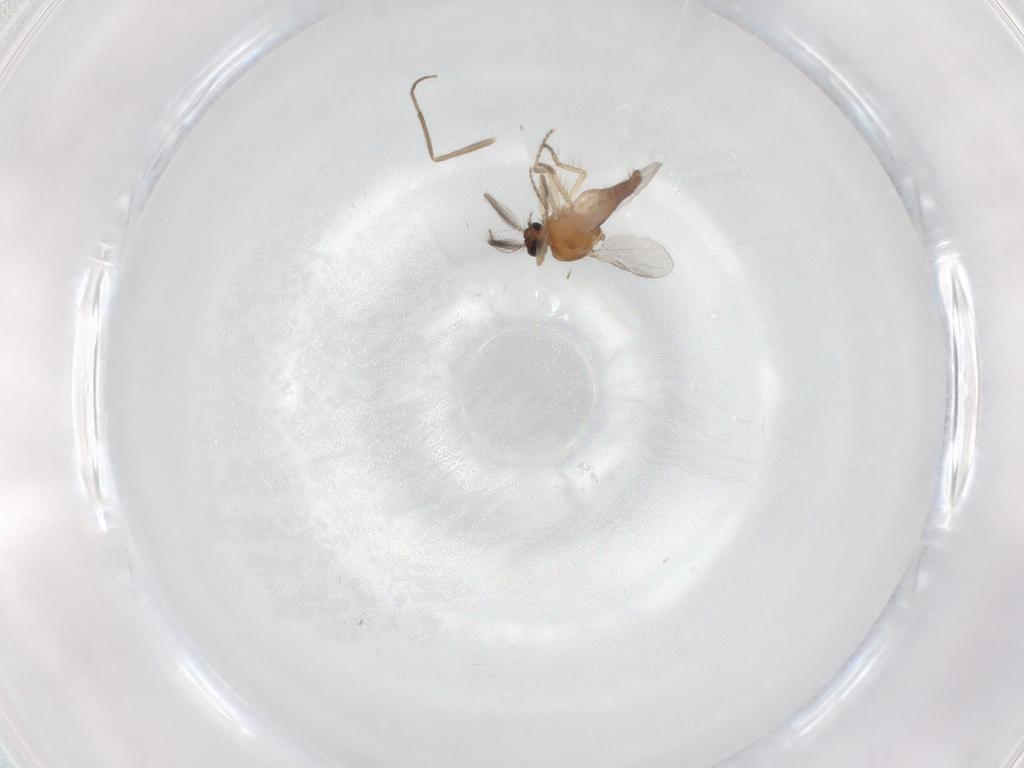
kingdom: Animalia
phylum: Arthropoda
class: Insecta
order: Diptera
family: Ceratopogonidae
